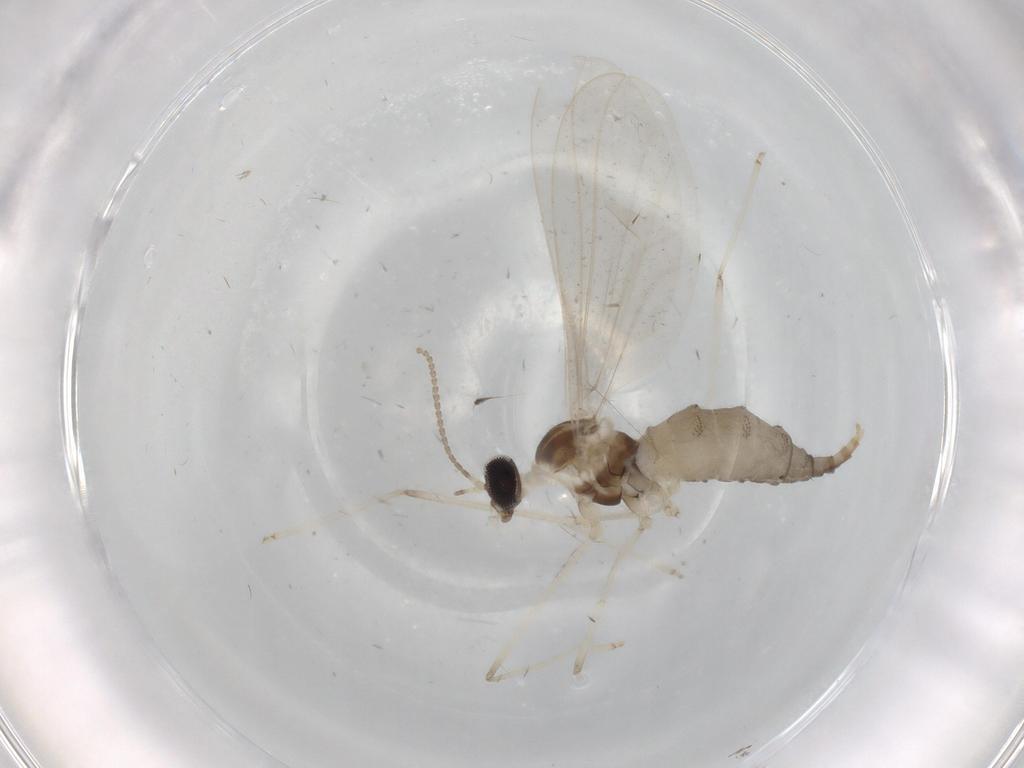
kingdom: Animalia
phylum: Arthropoda
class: Insecta
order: Diptera
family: Cecidomyiidae
